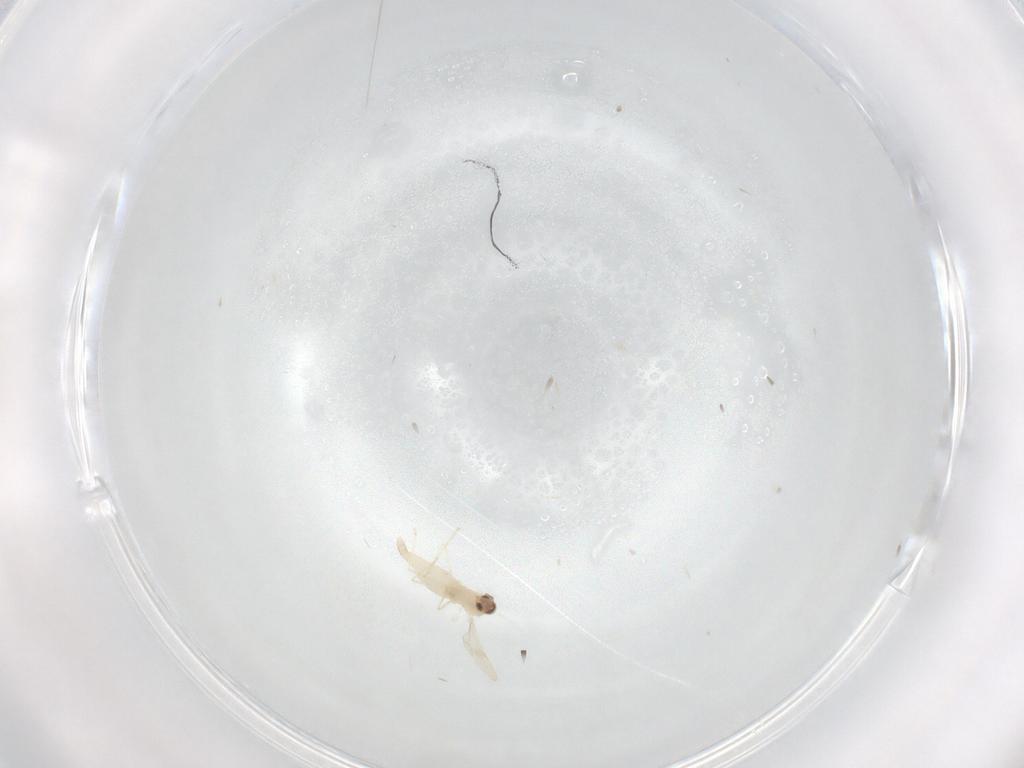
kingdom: Animalia
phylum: Arthropoda
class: Insecta
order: Diptera
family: Cecidomyiidae
